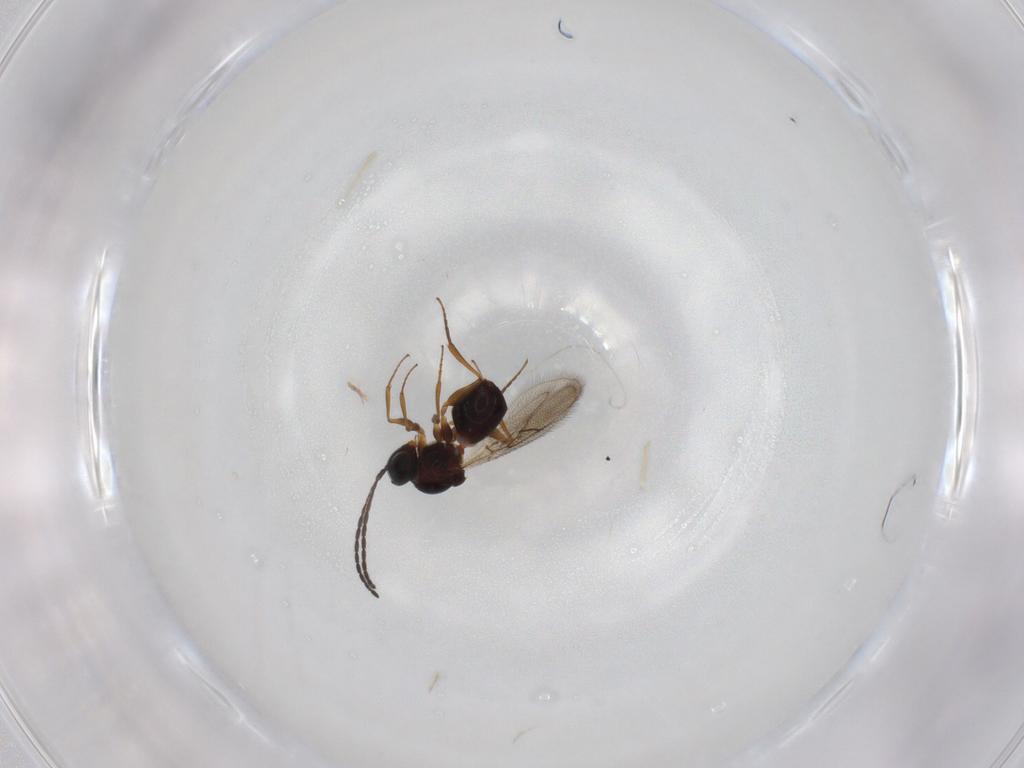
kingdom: Animalia
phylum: Arthropoda
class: Insecta
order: Hymenoptera
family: Figitidae
